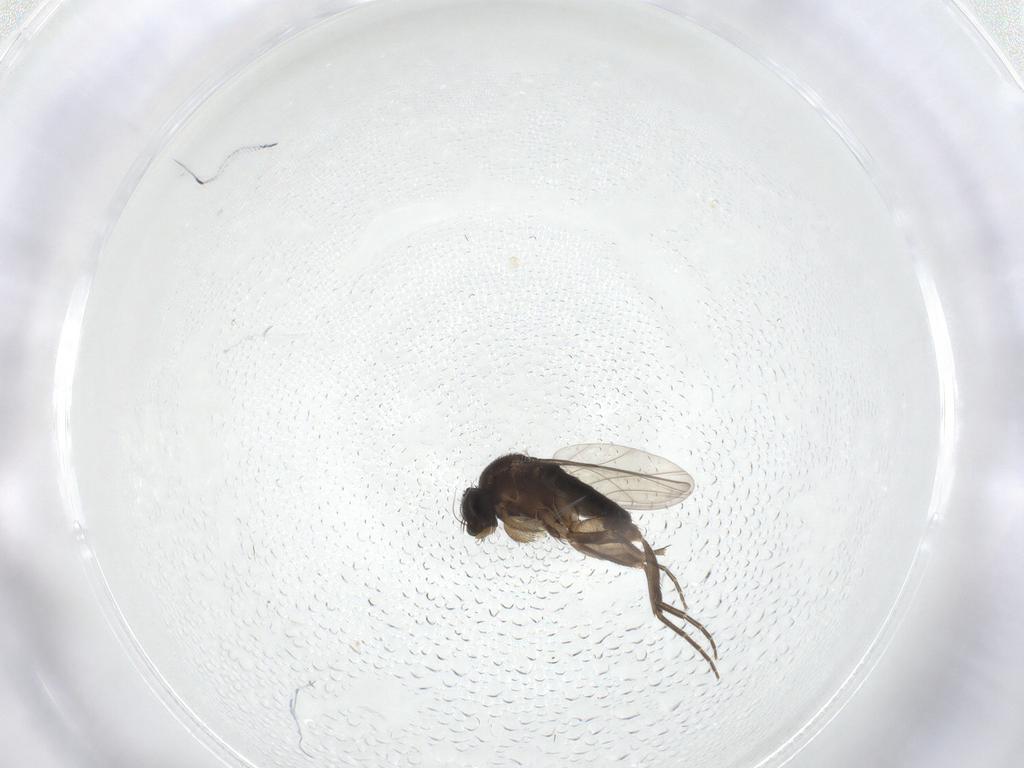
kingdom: Animalia
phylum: Arthropoda
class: Insecta
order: Diptera
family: Phoridae
